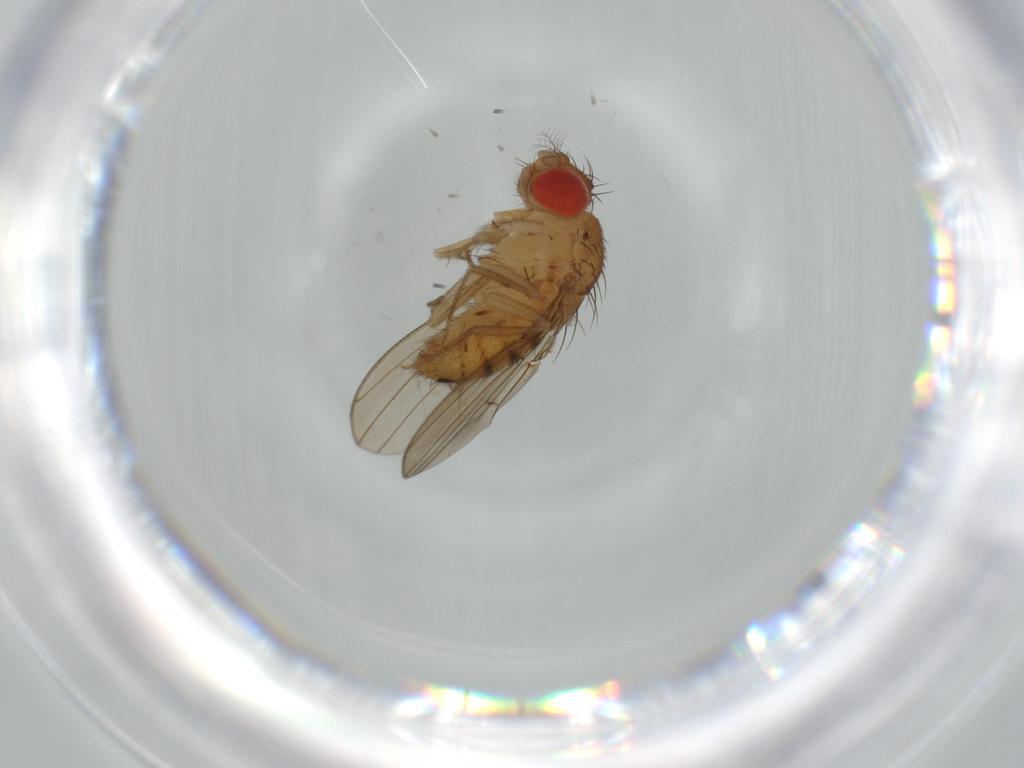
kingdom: Animalia
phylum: Arthropoda
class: Insecta
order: Diptera
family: Drosophilidae
